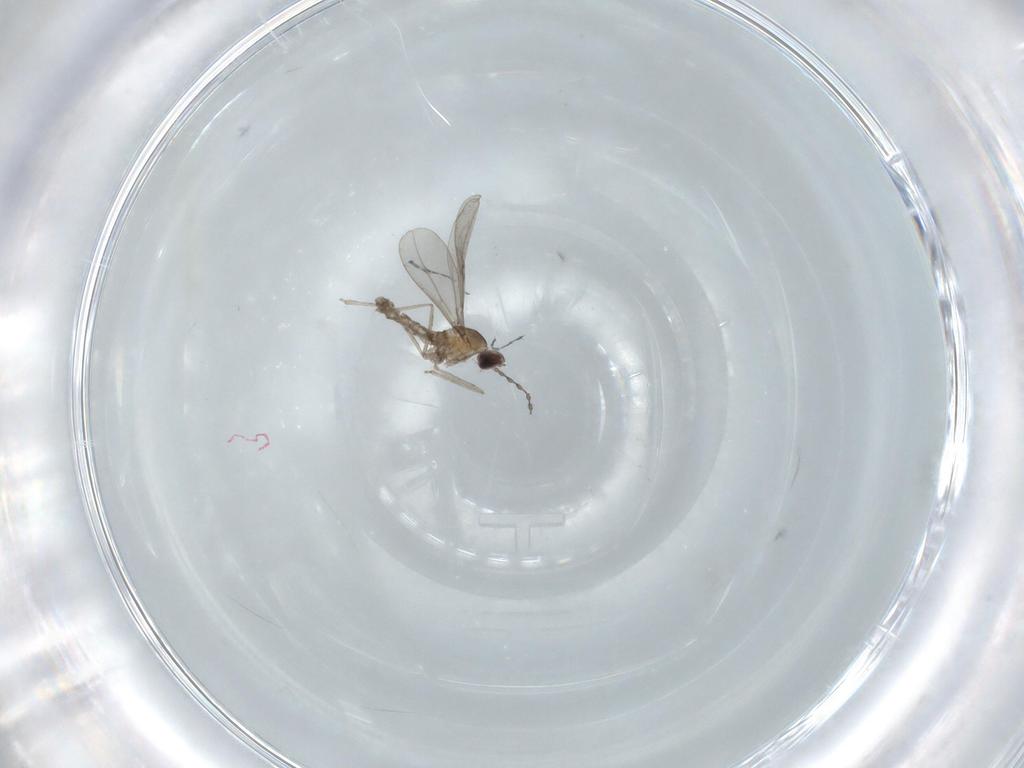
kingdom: Animalia
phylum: Arthropoda
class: Insecta
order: Diptera
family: Cecidomyiidae
